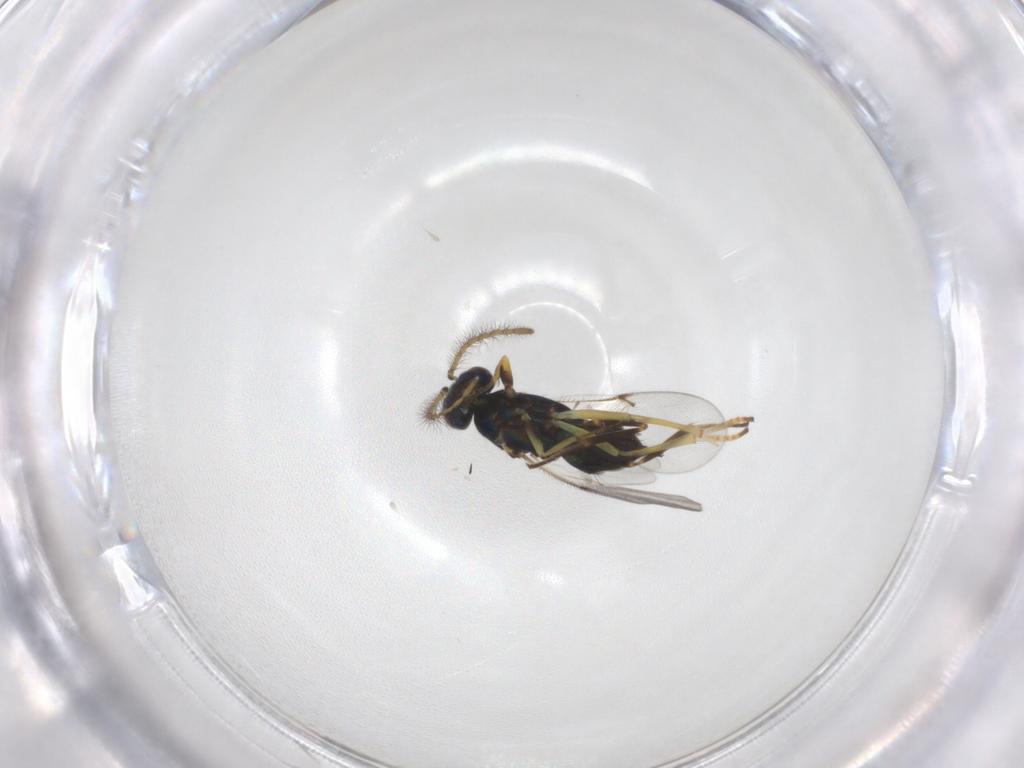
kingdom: Animalia
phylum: Arthropoda
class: Insecta
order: Hymenoptera
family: Encyrtidae
